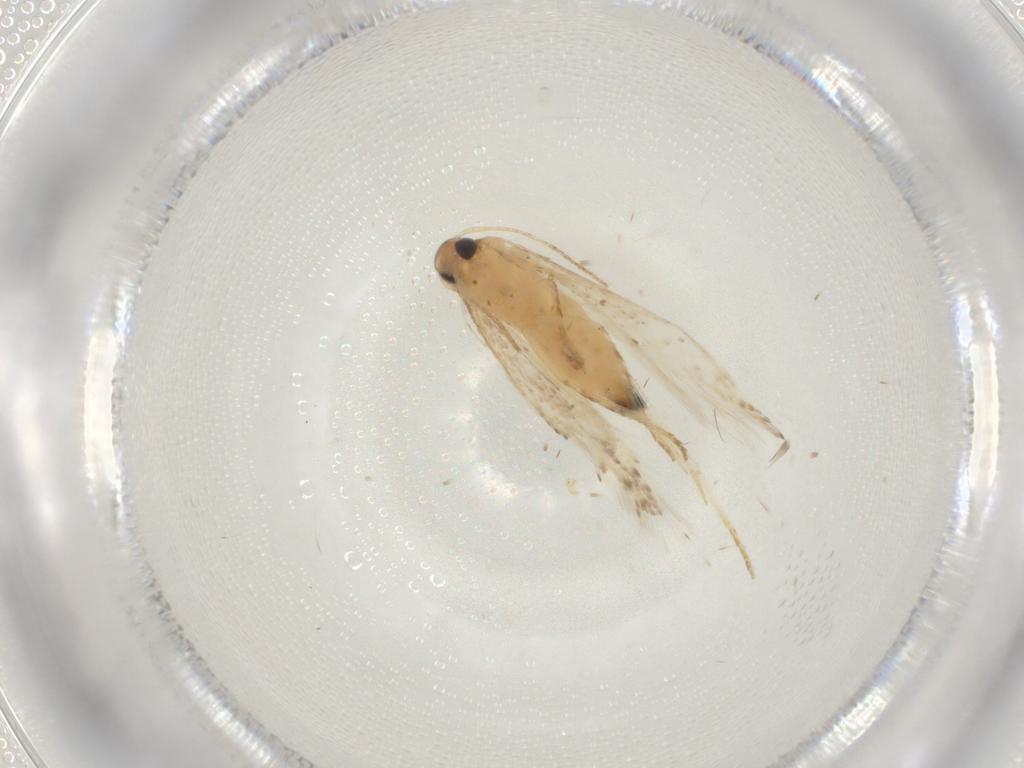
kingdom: Animalia
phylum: Arthropoda
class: Insecta
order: Lepidoptera
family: Gelechiidae
